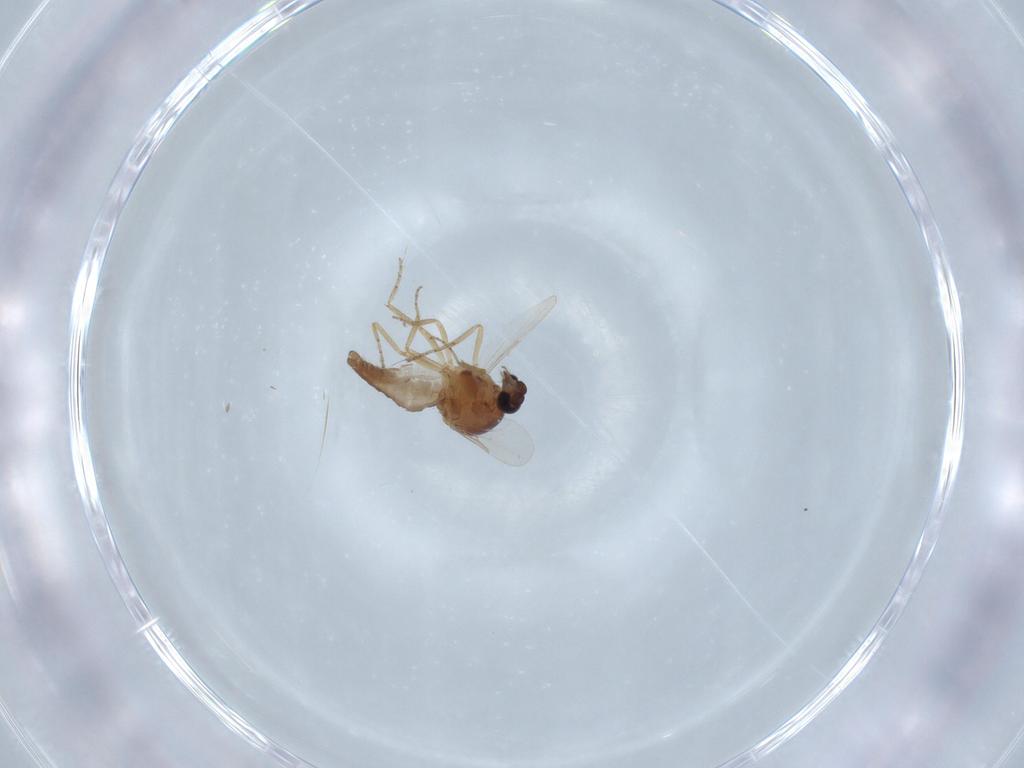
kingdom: Animalia
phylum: Arthropoda
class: Insecta
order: Diptera
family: Ceratopogonidae
